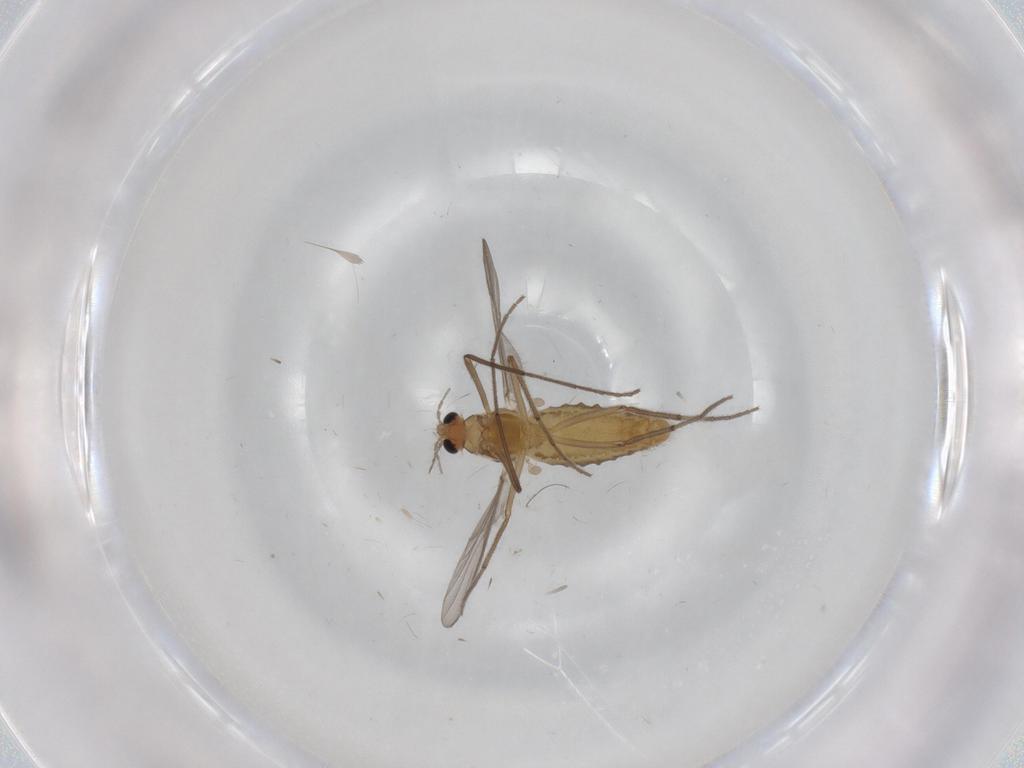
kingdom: Animalia
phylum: Arthropoda
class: Insecta
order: Diptera
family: Chironomidae
